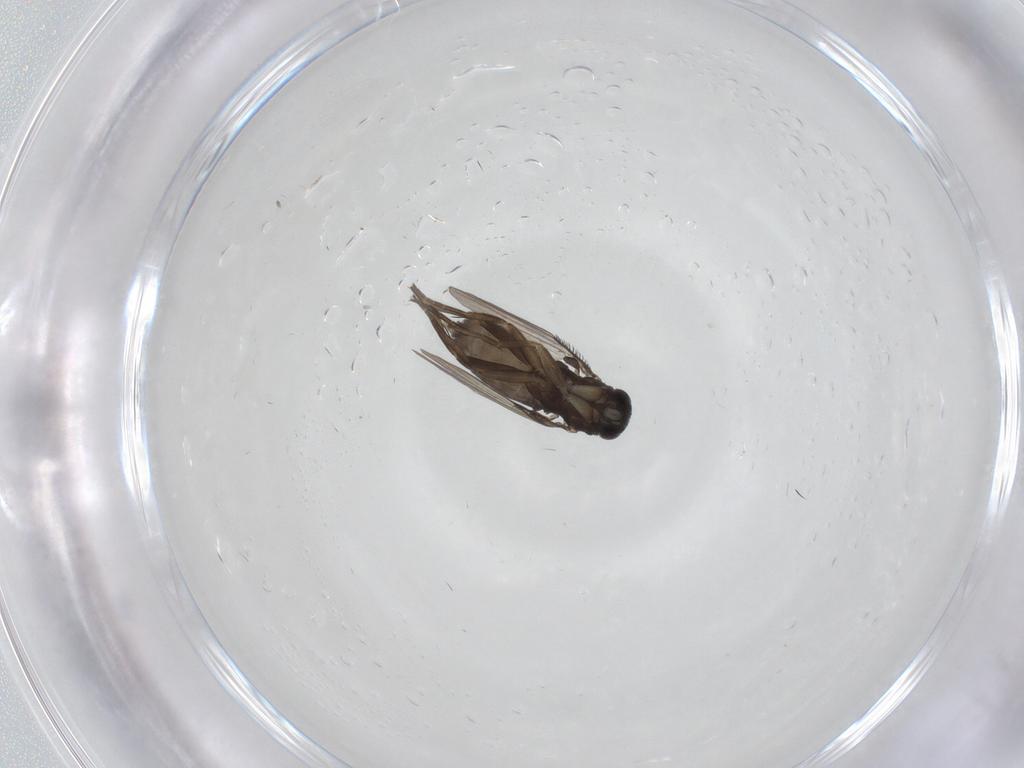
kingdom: Animalia
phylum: Arthropoda
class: Insecta
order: Diptera
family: Phoridae
